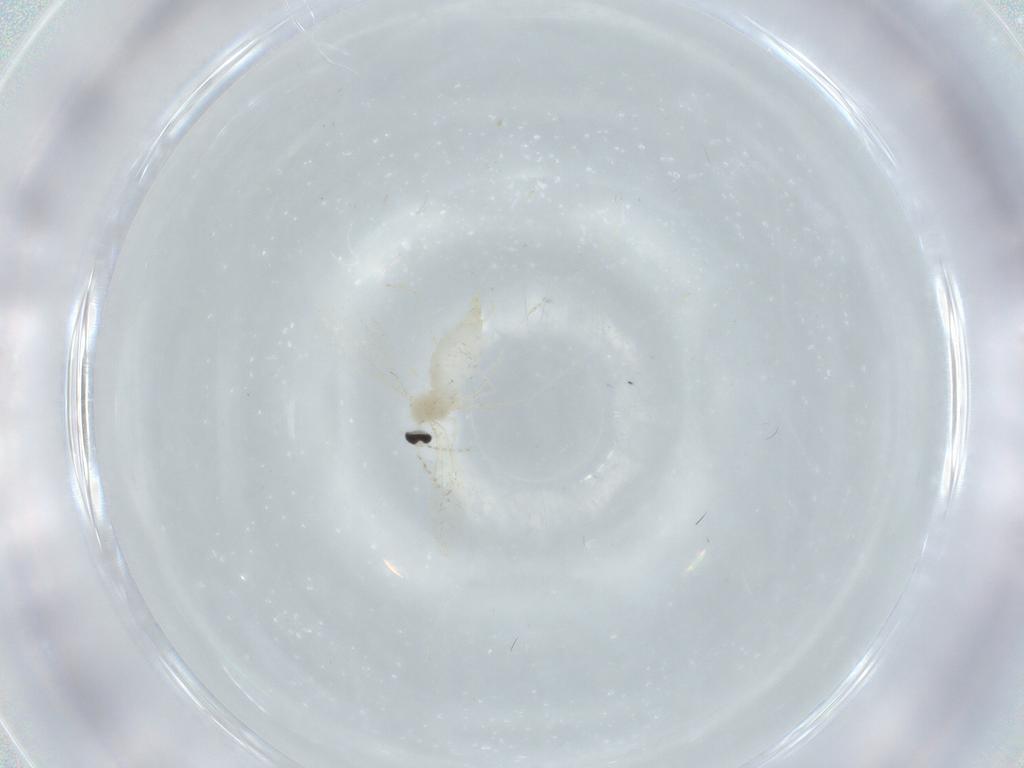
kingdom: Animalia
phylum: Arthropoda
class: Insecta
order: Diptera
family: Cecidomyiidae
